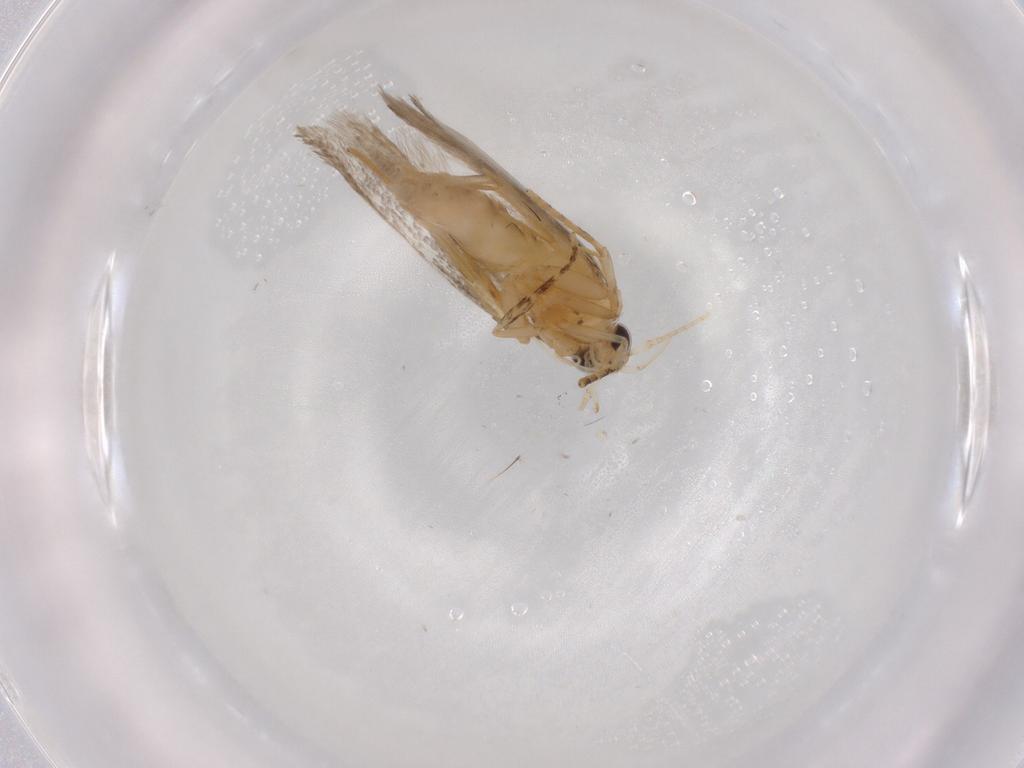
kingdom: Animalia
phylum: Arthropoda
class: Insecta
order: Lepidoptera
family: Autostichidae
